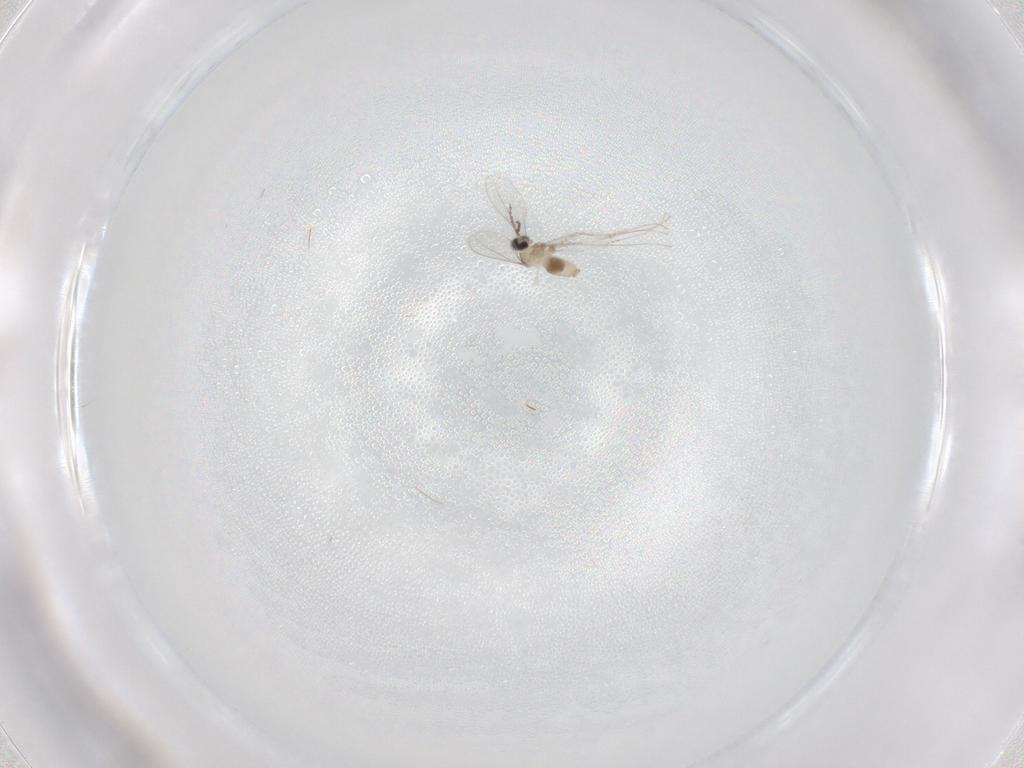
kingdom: Animalia
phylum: Arthropoda
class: Insecta
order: Diptera
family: Cecidomyiidae
